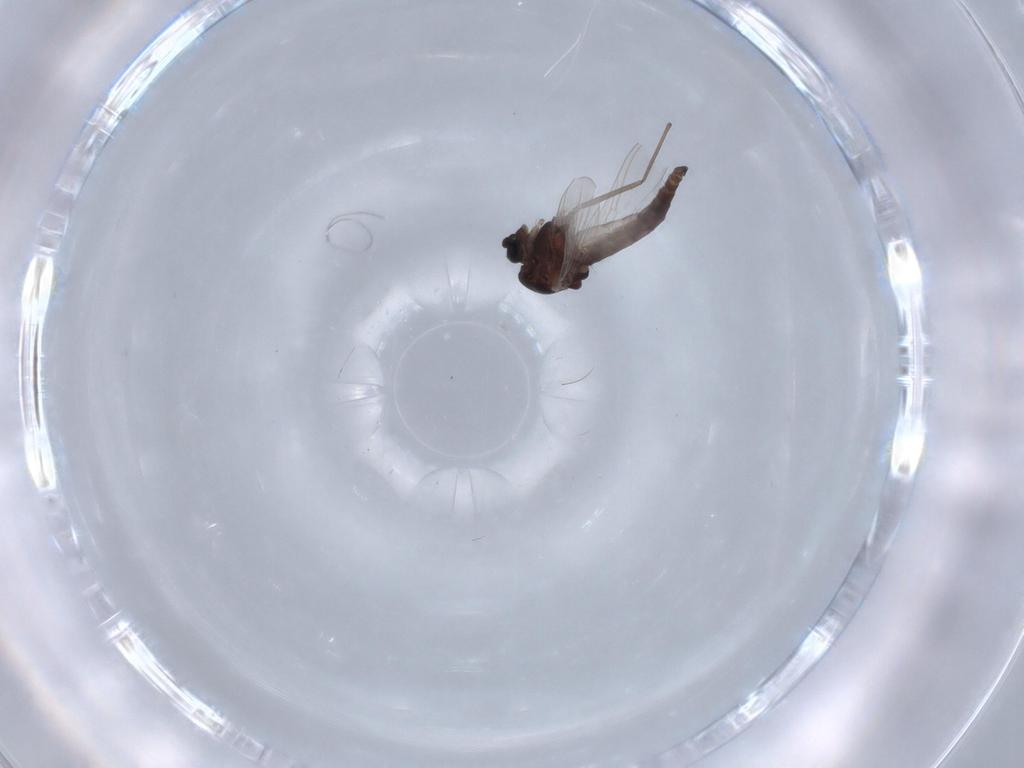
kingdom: Animalia
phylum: Arthropoda
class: Insecta
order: Diptera
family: Chironomidae
